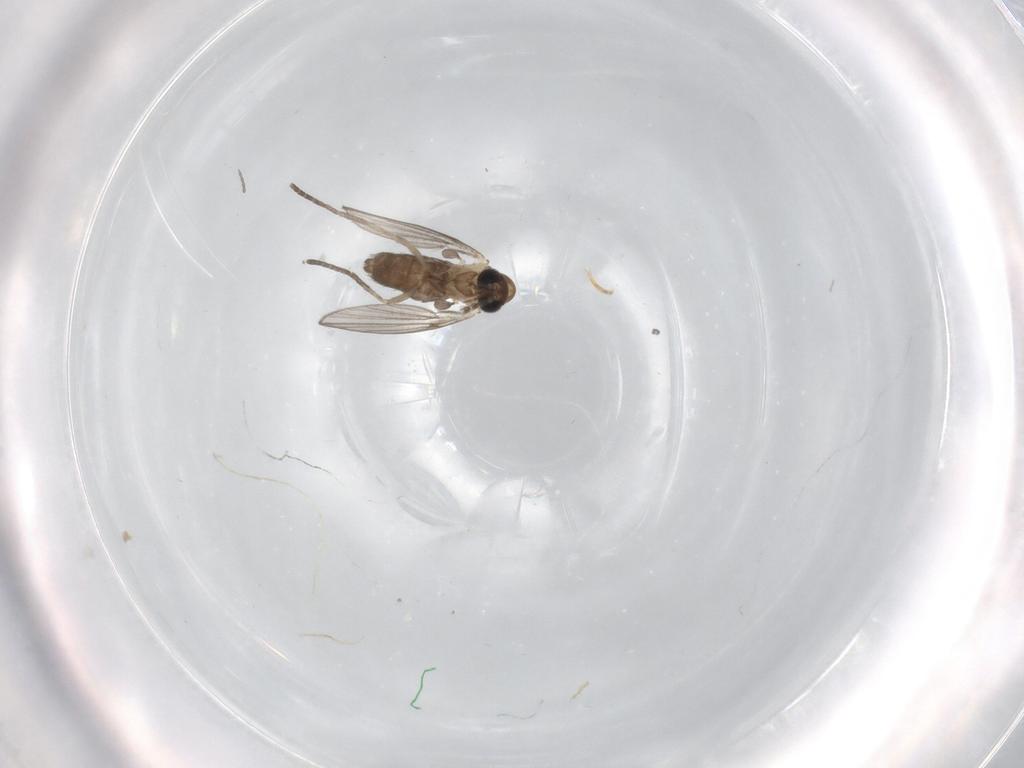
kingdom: Animalia
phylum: Arthropoda
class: Insecta
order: Diptera
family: Psychodidae
